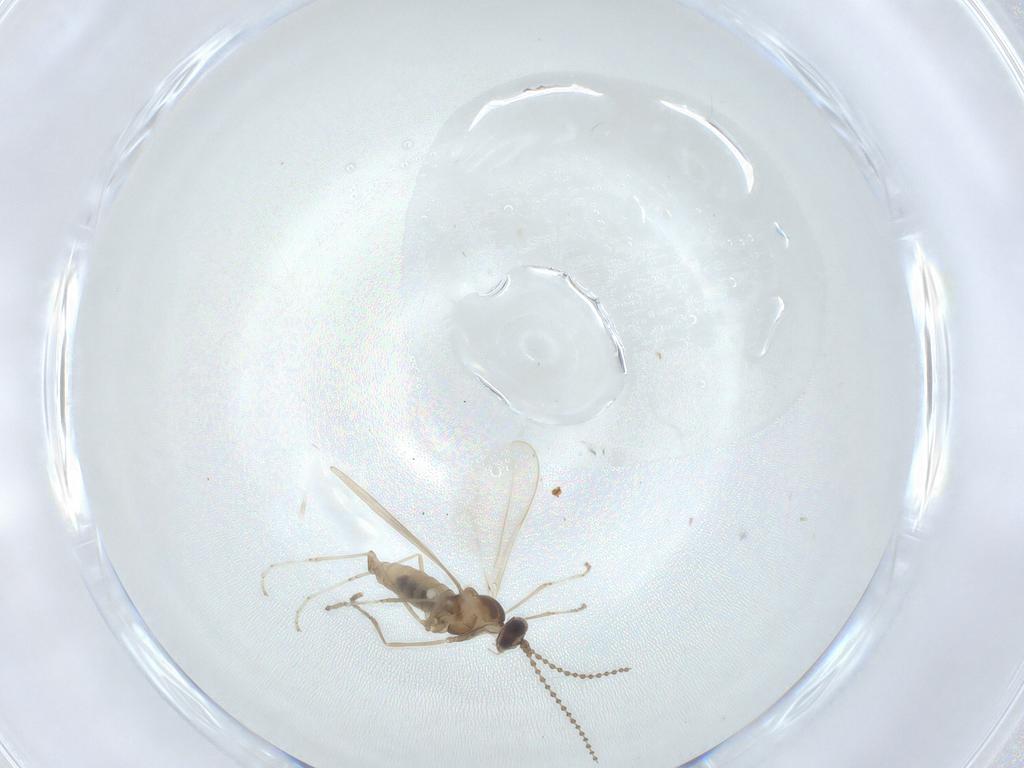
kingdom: Animalia
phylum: Arthropoda
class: Insecta
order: Diptera
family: Cecidomyiidae
